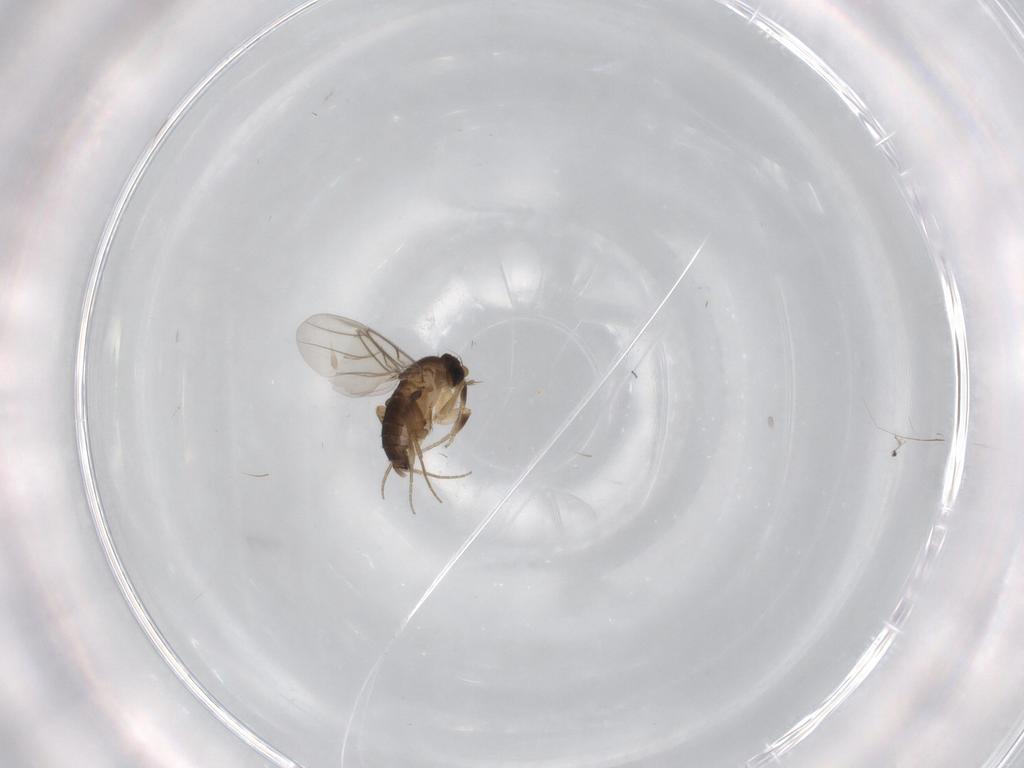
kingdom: Animalia
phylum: Arthropoda
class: Insecta
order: Diptera
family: Phoridae
